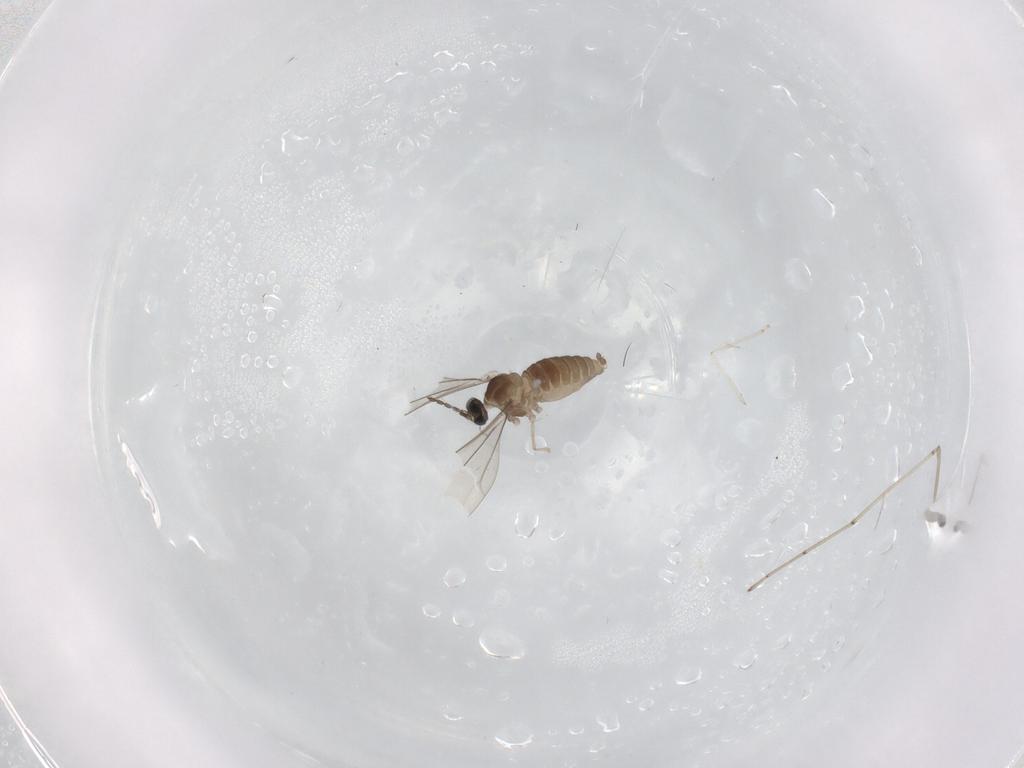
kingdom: Animalia
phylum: Arthropoda
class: Insecta
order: Diptera
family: Cecidomyiidae
